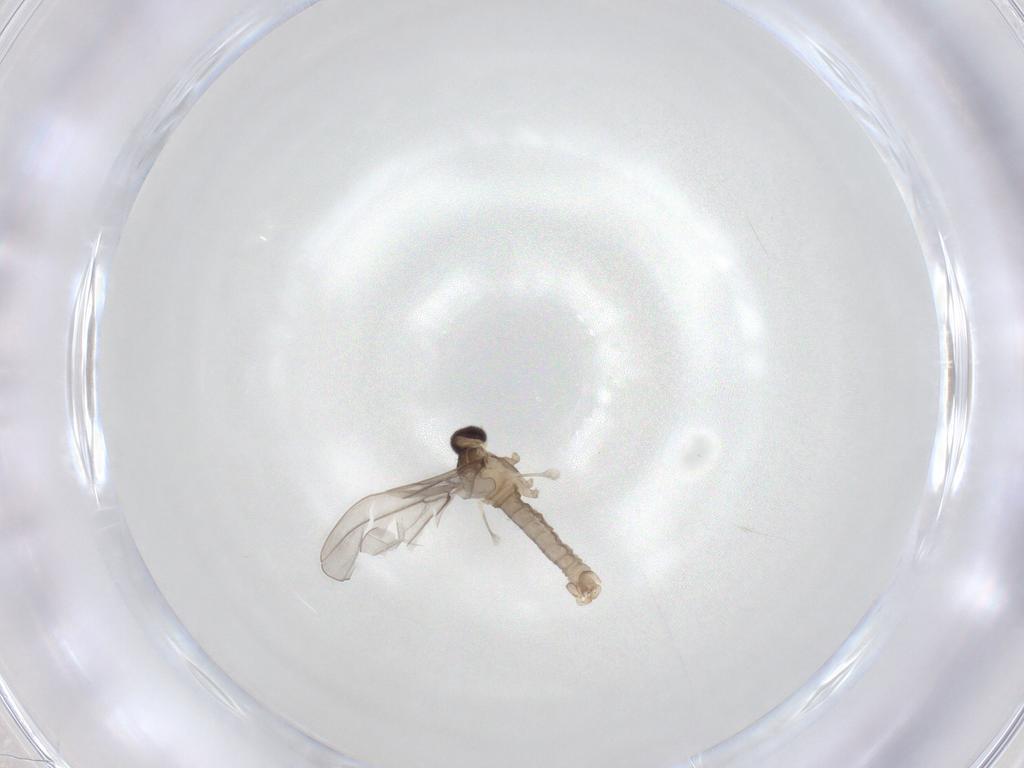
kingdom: Animalia
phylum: Arthropoda
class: Insecta
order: Diptera
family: Cecidomyiidae
